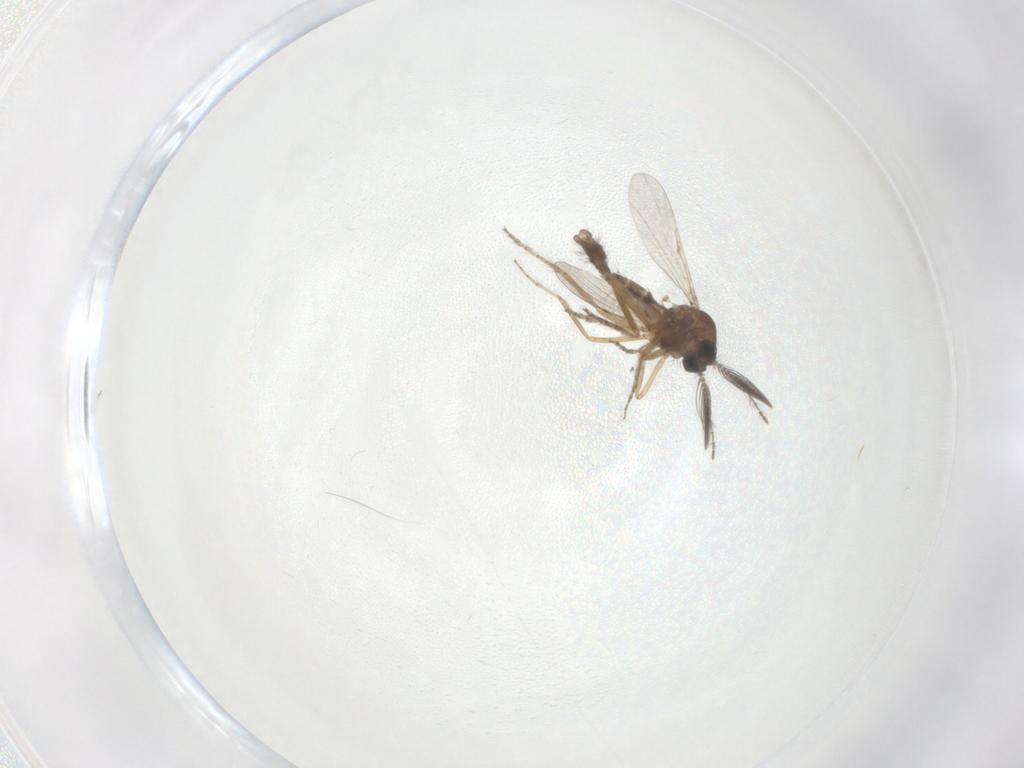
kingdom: Animalia
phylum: Arthropoda
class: Insecta
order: Diptera
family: Ceratopogonidae
